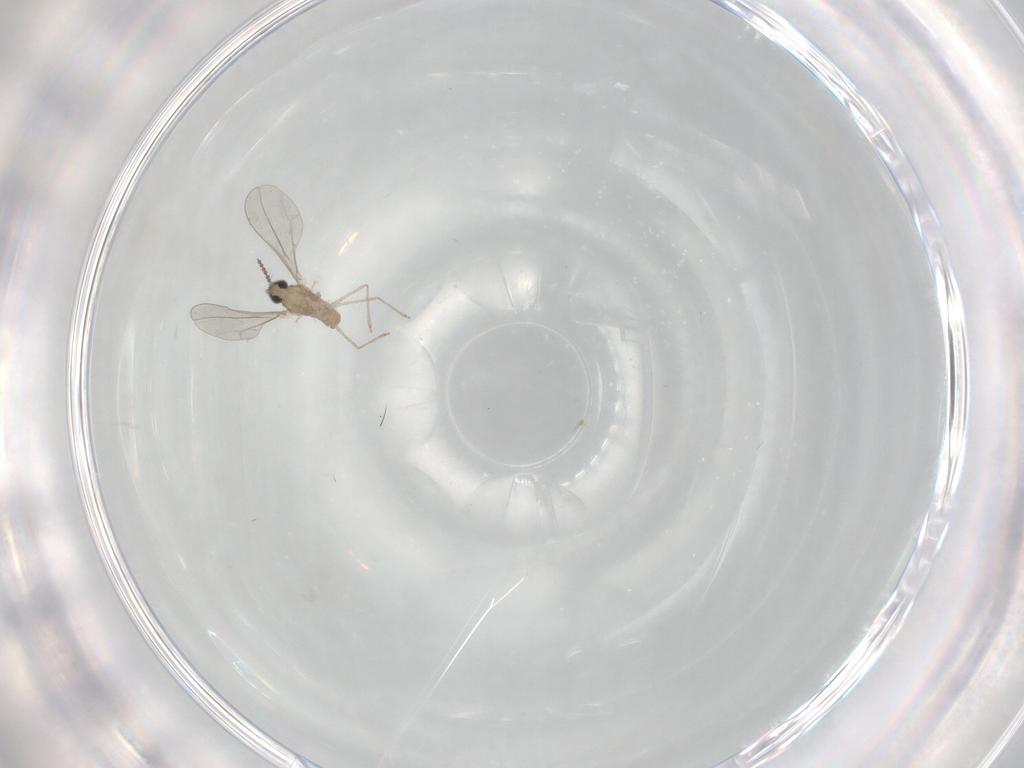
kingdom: Animalia
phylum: Arthropoda
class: Insecta
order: Diptera
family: Cecidomyiidae
